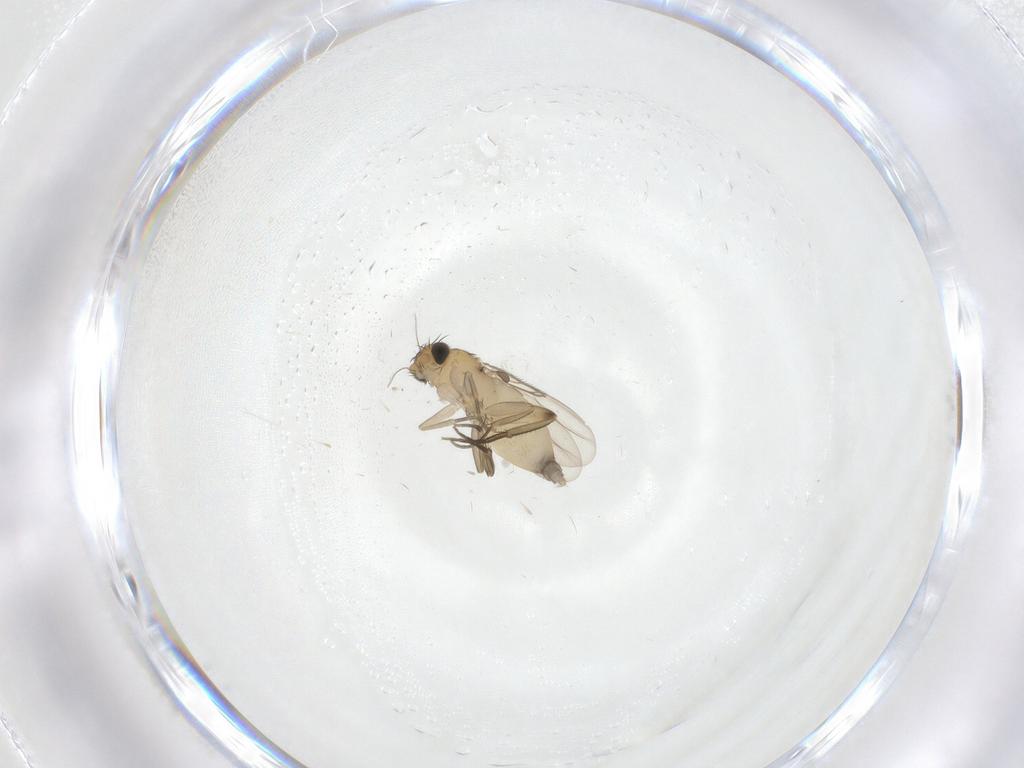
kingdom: Animalia
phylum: Arthropoda
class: Insecta
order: Diptera
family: Phoridae
